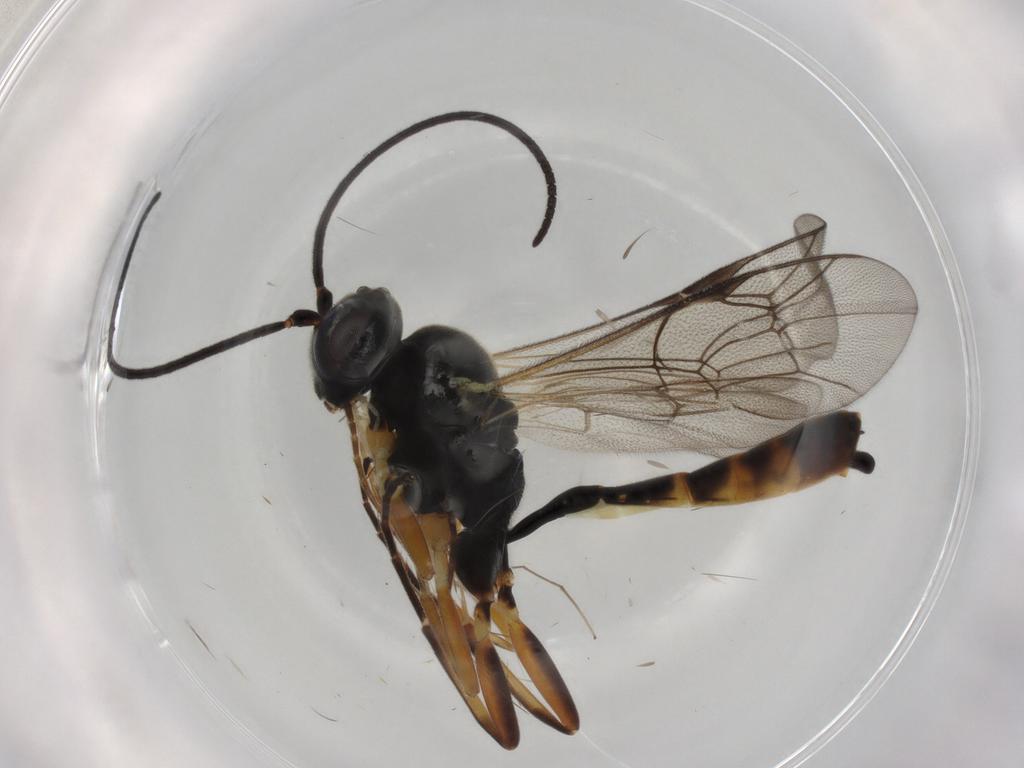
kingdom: Animalia
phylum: Arthropoda
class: Insecta
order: Hymenoptera
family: Ichneumonidae
